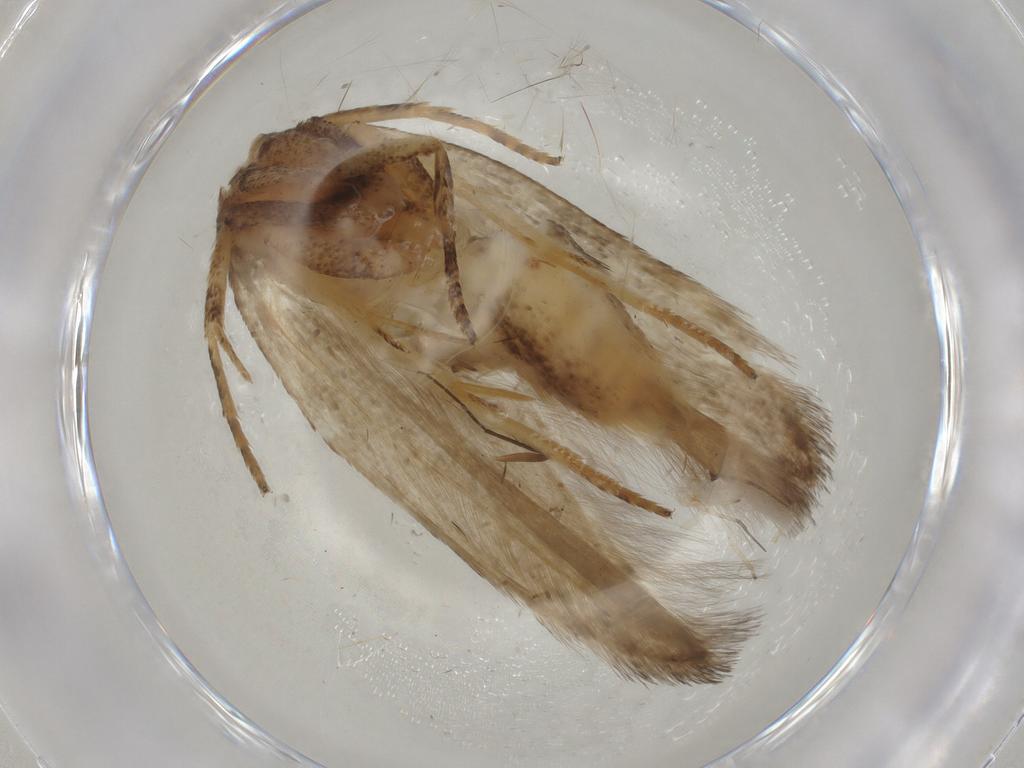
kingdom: Animalia
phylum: Arthropoda
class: Insecta
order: Lepidoptera
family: Gelechiidae
